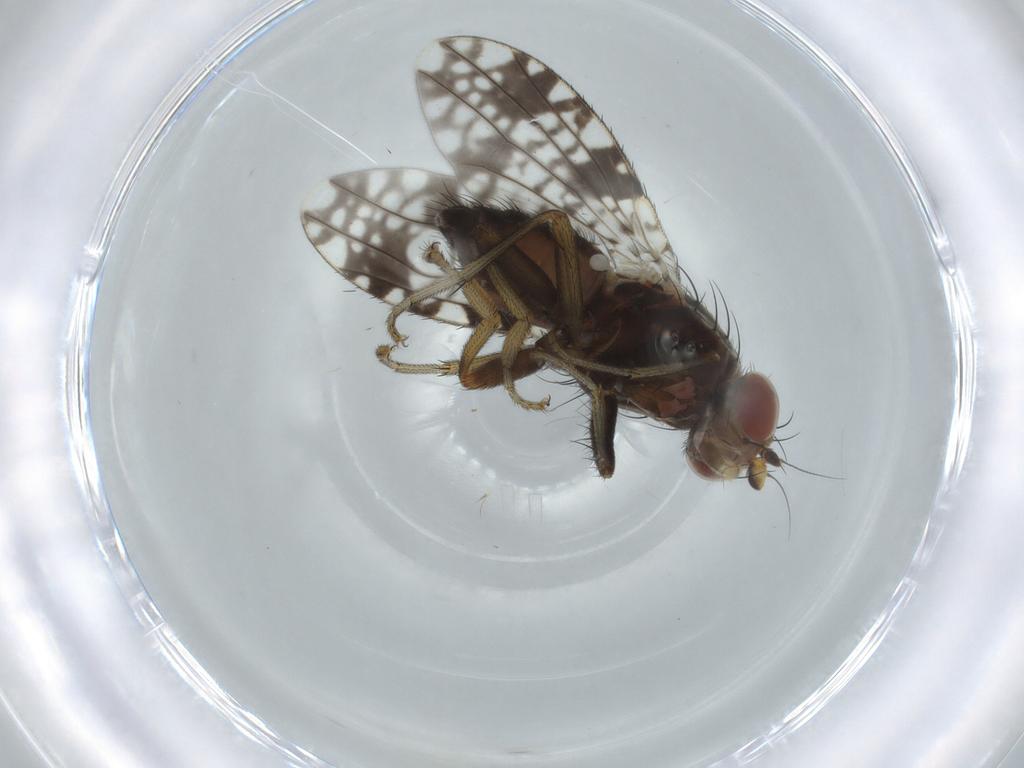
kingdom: Animalia
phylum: Arthropoda
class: Insecta
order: Diptera
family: Tephritidae
